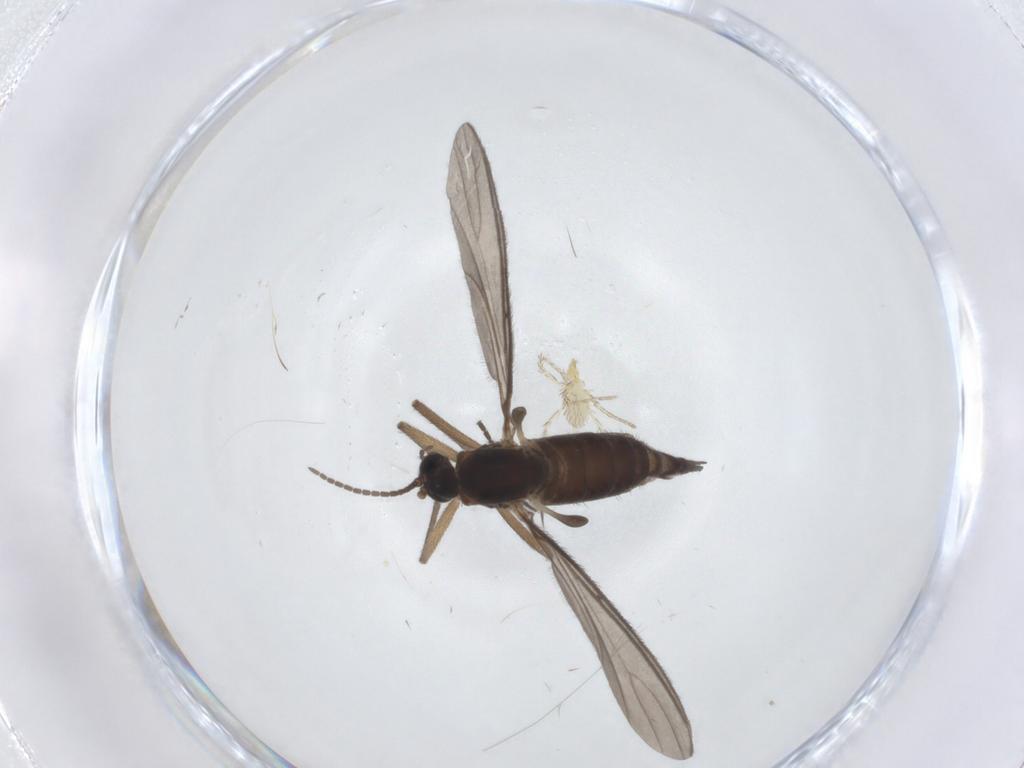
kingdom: Animalia
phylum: Arthropoda
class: Insecta
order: Diptera
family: Sciaridae
